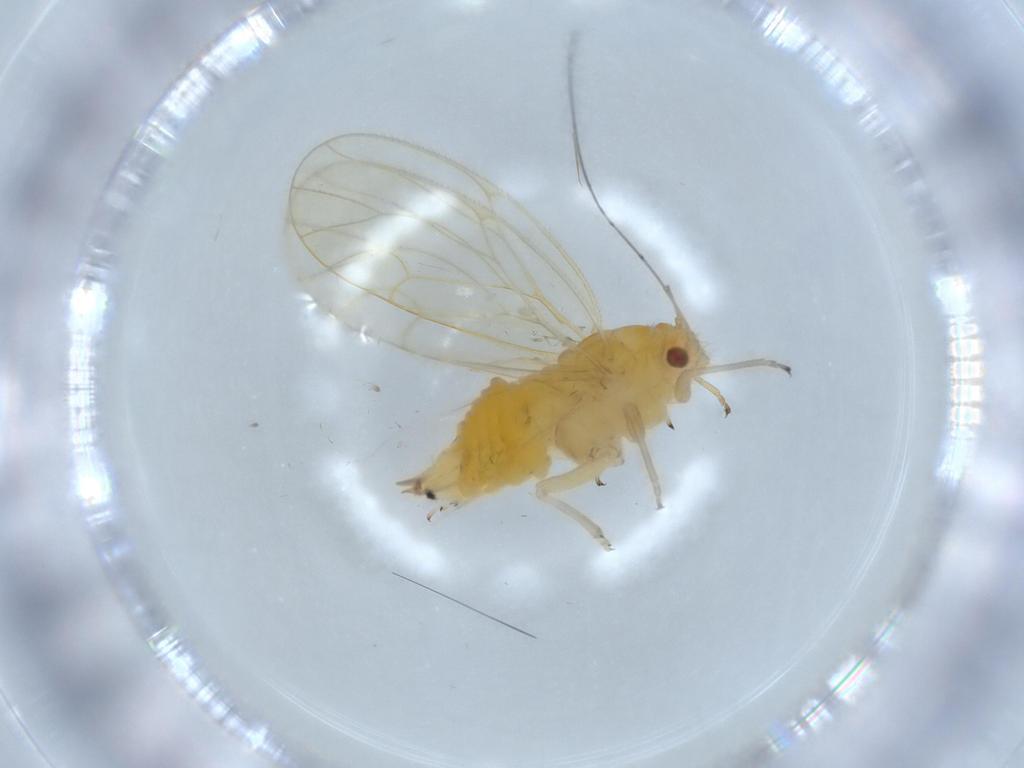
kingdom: Animalia
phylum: Arthropoda
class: Insecta
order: Hemiptera
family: Psyllidae
